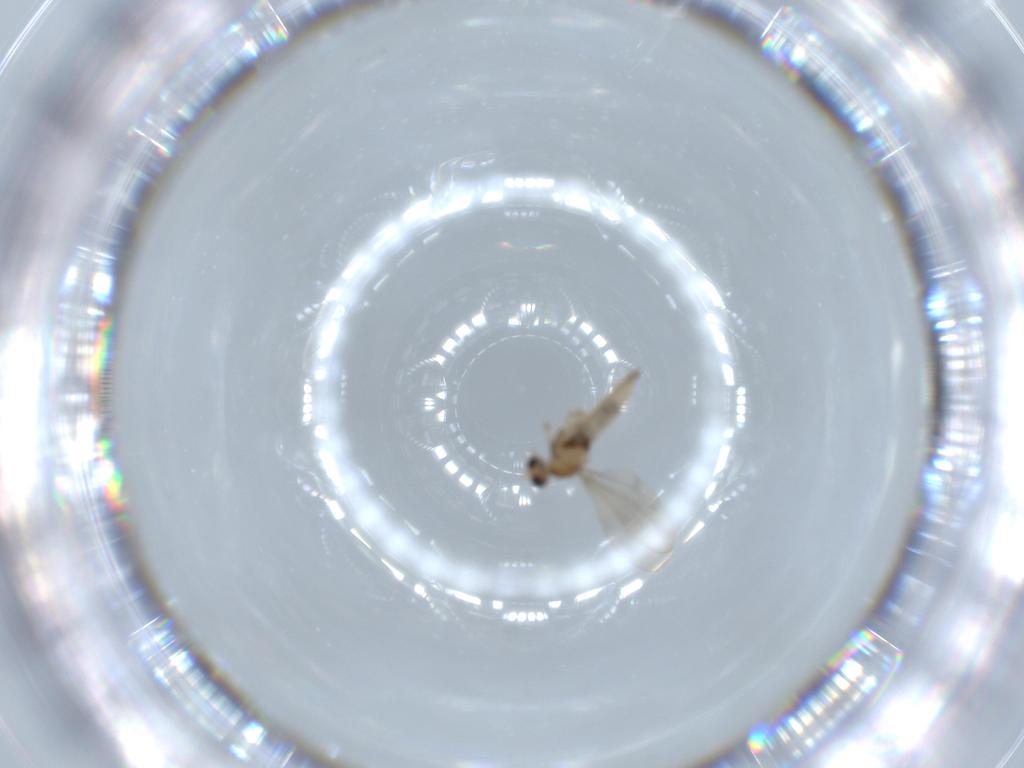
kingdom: Animalia
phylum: Arthropoda
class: Insecta
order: Diptera
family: Cecidomyiidae
